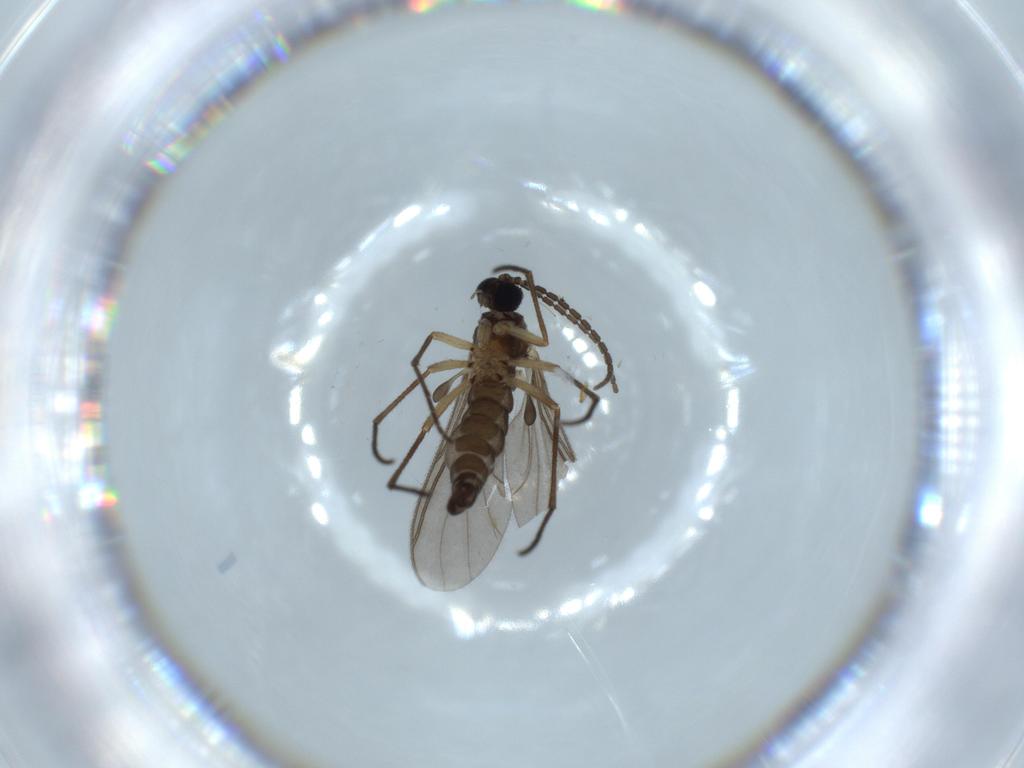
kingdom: Animalia
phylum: Arthropoda
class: Insecta
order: Diptera
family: Sciaridae
